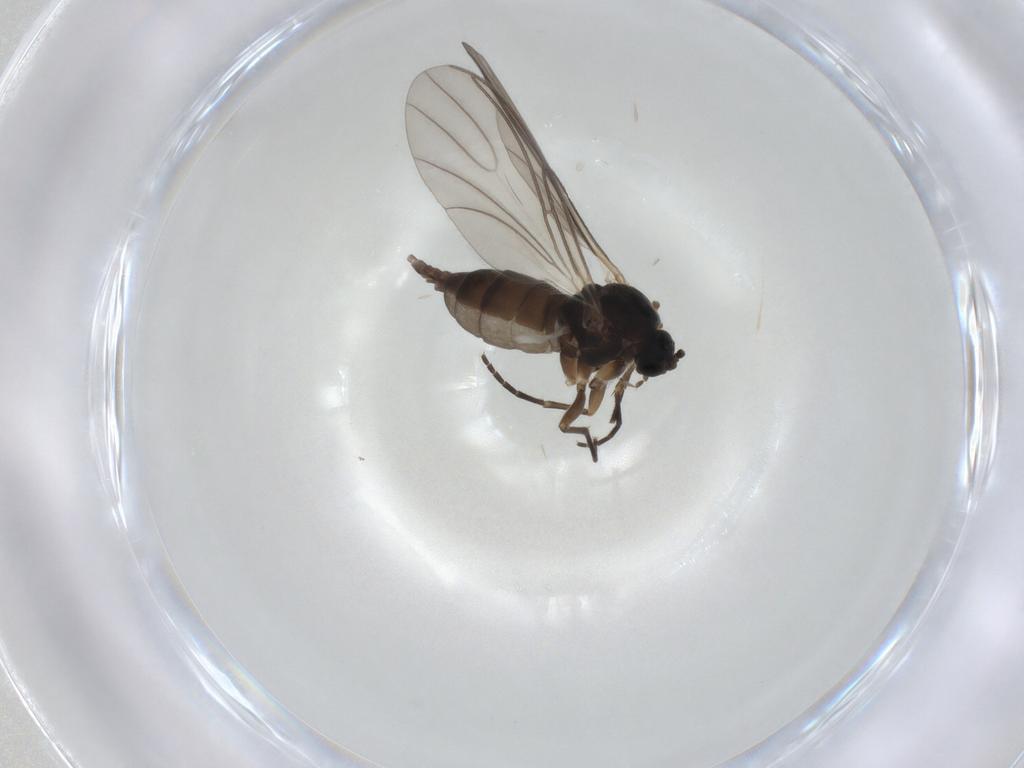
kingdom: Animalia
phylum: Arthropoda
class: Insecta
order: Diptera
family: Sciaridae
